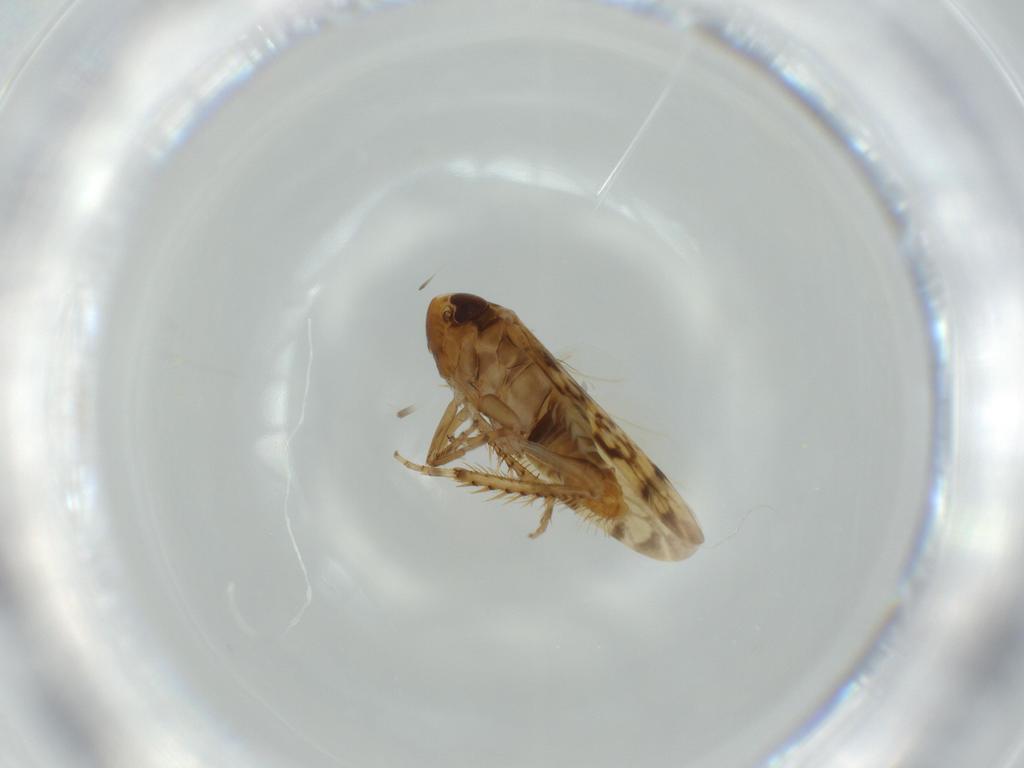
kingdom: Animalia
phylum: Arthropoda
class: Insecta
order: Hemiptera
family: Cicadellidae
